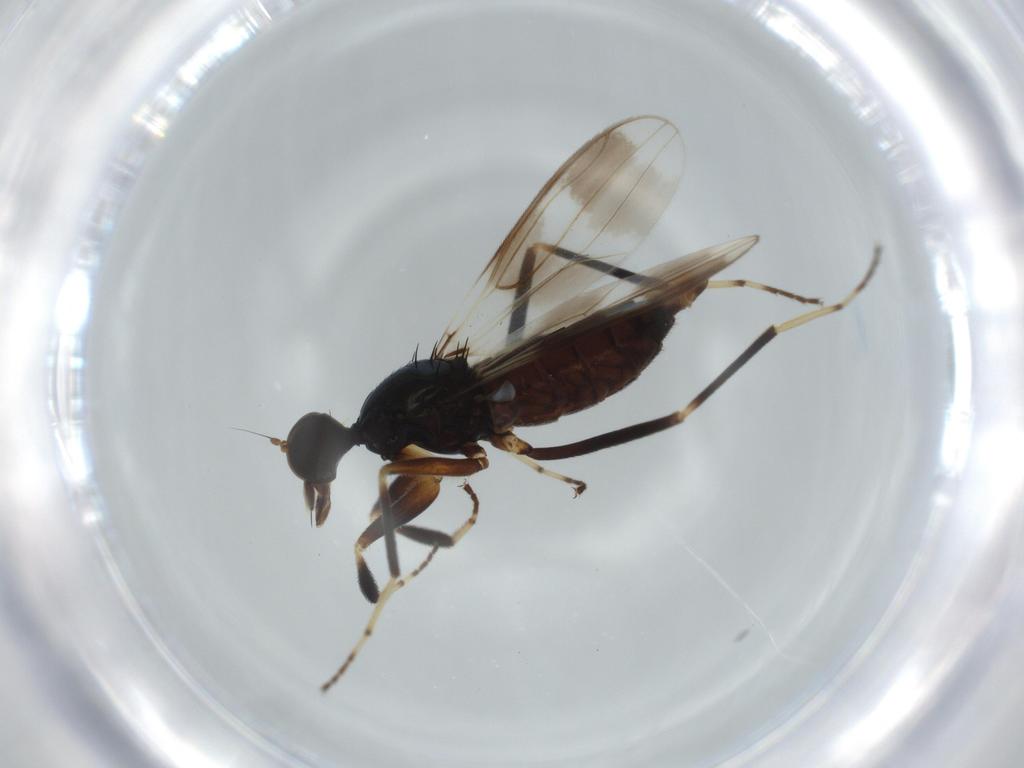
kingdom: Animalia
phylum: Arthropoda
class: Insecta
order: Diptera
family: Hybotidae
